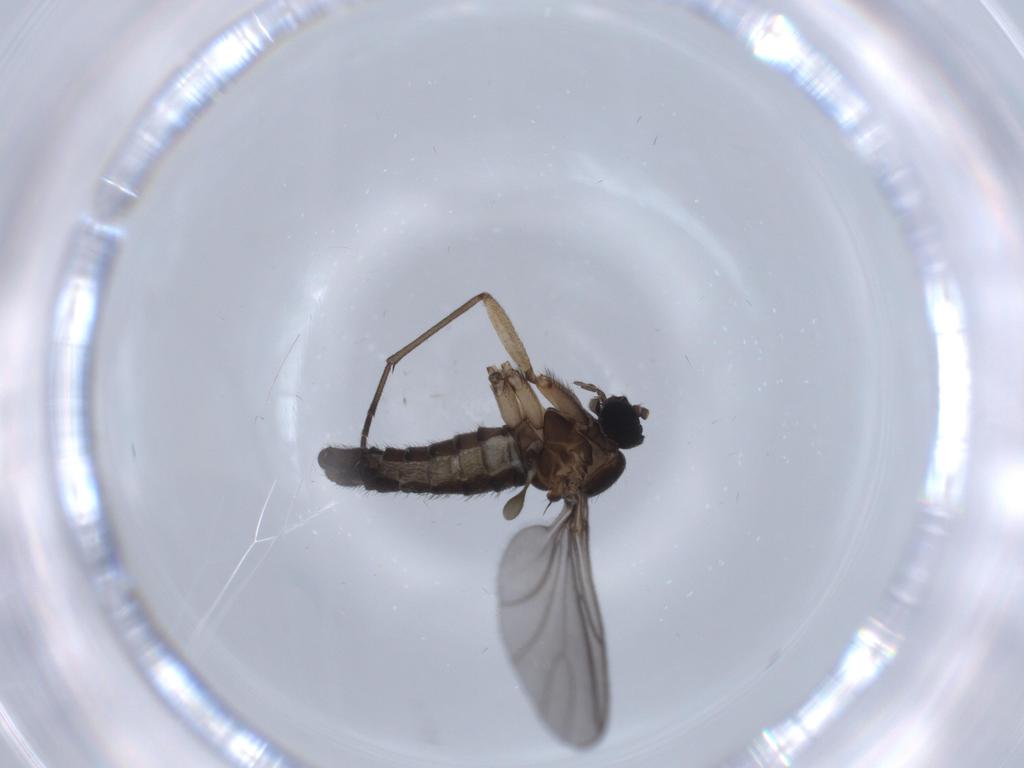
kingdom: Animalia
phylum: Arthropoda
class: Insecta
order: Diptera
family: Sciaridae
